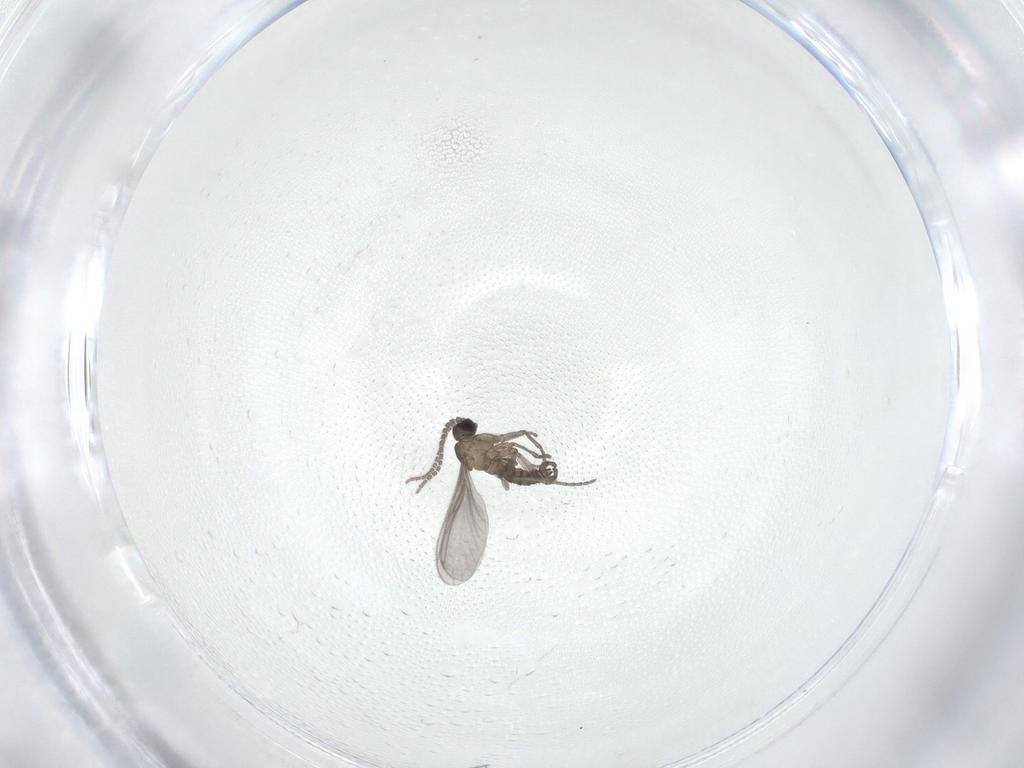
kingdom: Animalia
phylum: Arthropoda
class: Insecta
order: Diptera
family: Sciaridae
